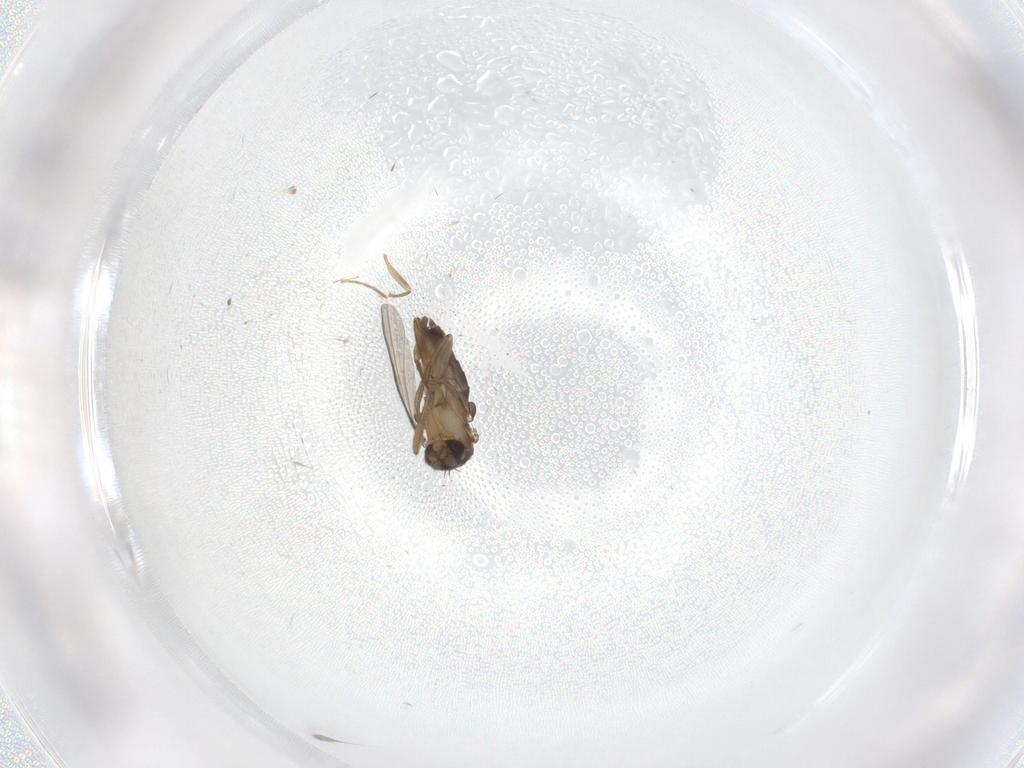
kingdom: Animalia
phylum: Arthropoda
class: Insecta
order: Diptera
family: Phoridae
